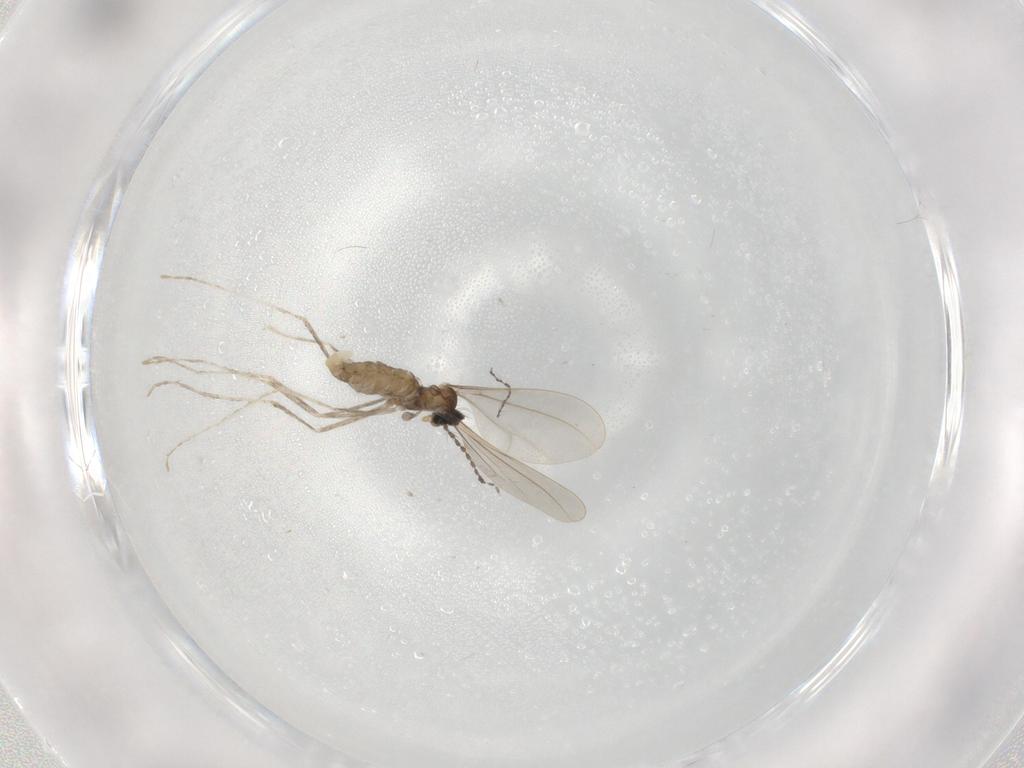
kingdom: Animalia
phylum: Arthropoda
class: Insecta
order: Diptera
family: Cecidomyiidae
